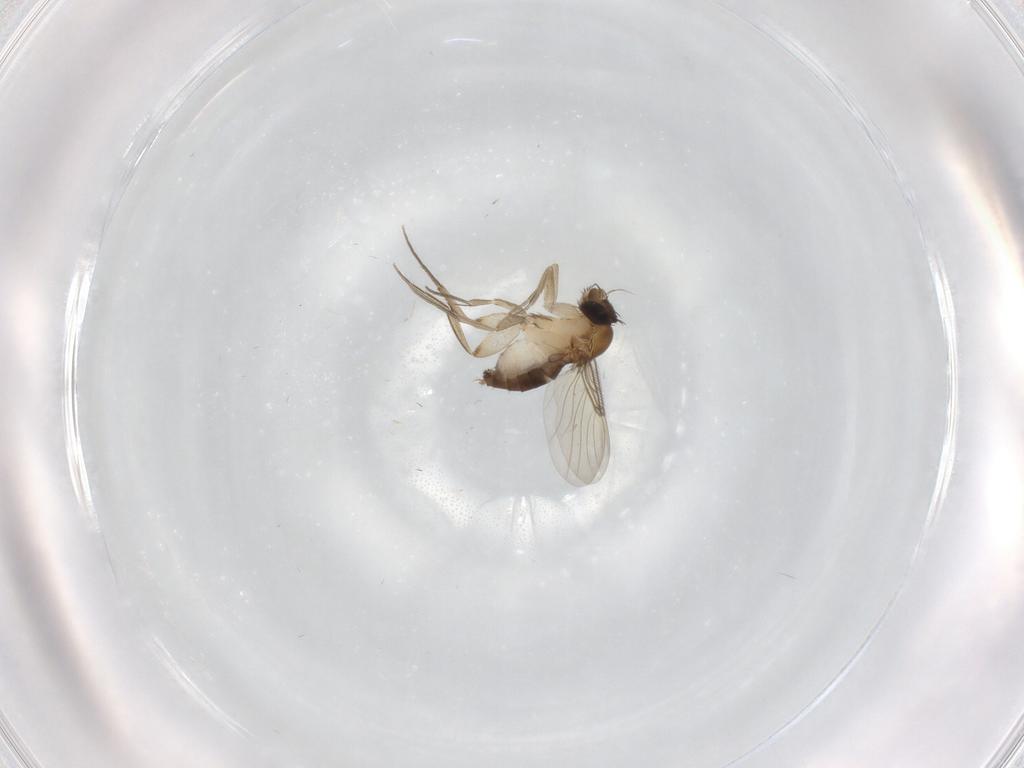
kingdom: Animalia
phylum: Arthropoda
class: Insecta
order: Diptera
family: Phoridae
